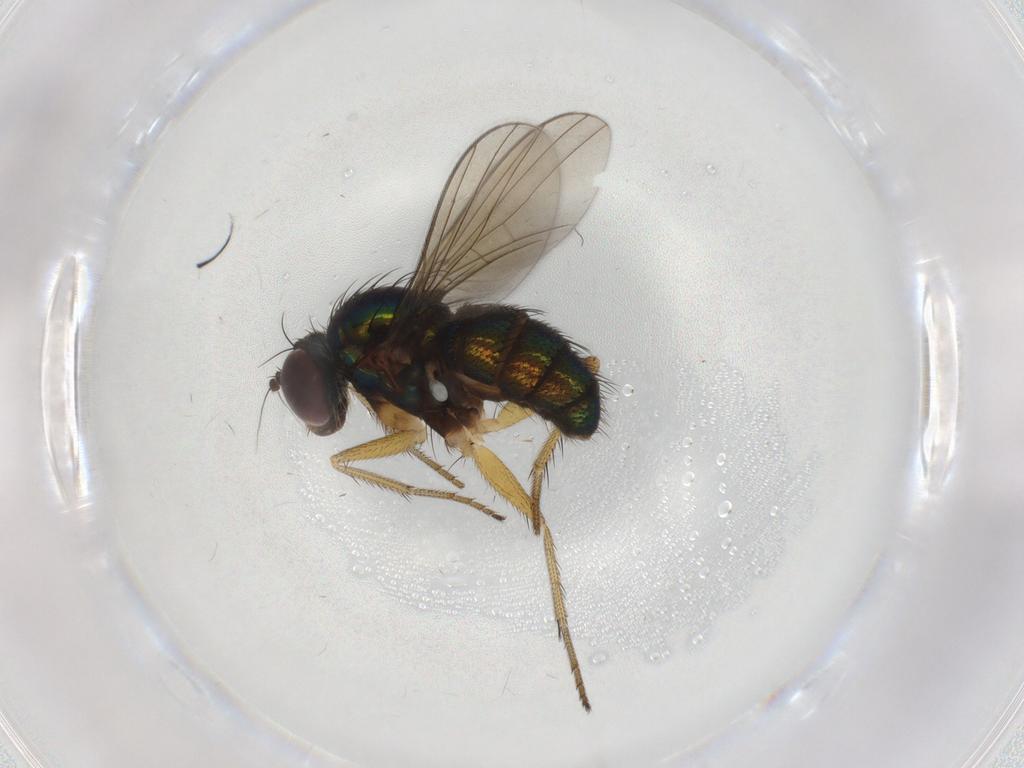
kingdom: Animalia
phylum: Arthropoda
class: Insecta
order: Diptera
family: Dolichopodidae
